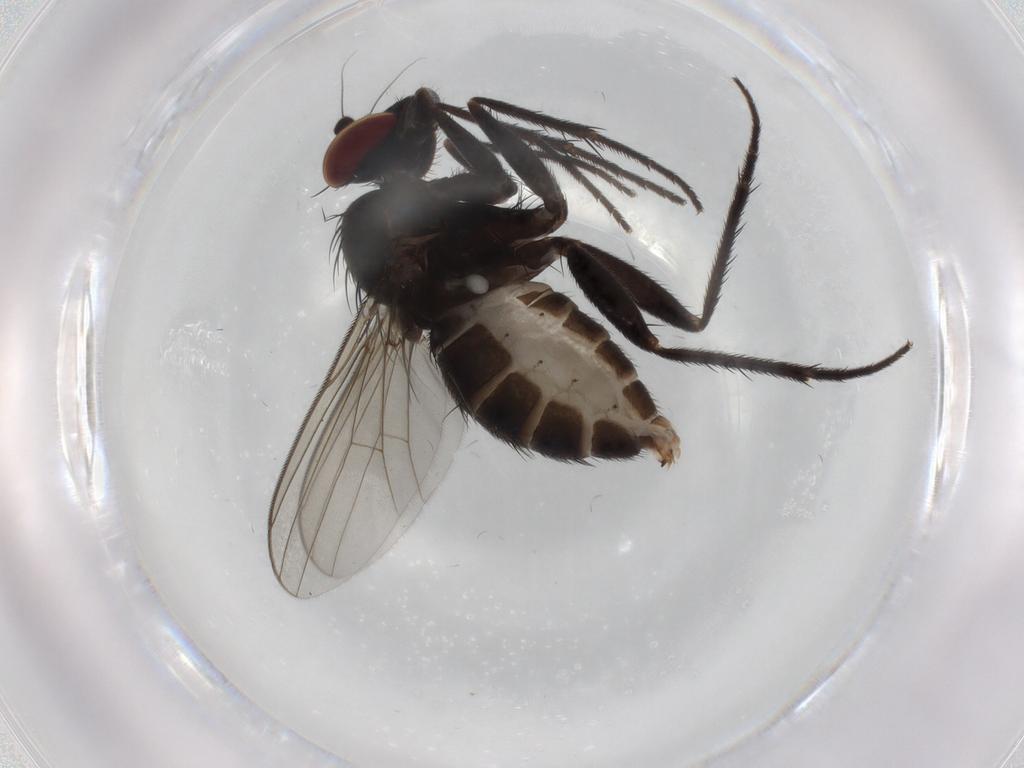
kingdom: Animalia
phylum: Arthropoda
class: Insecta
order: Diptera
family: Dolichopodidae
